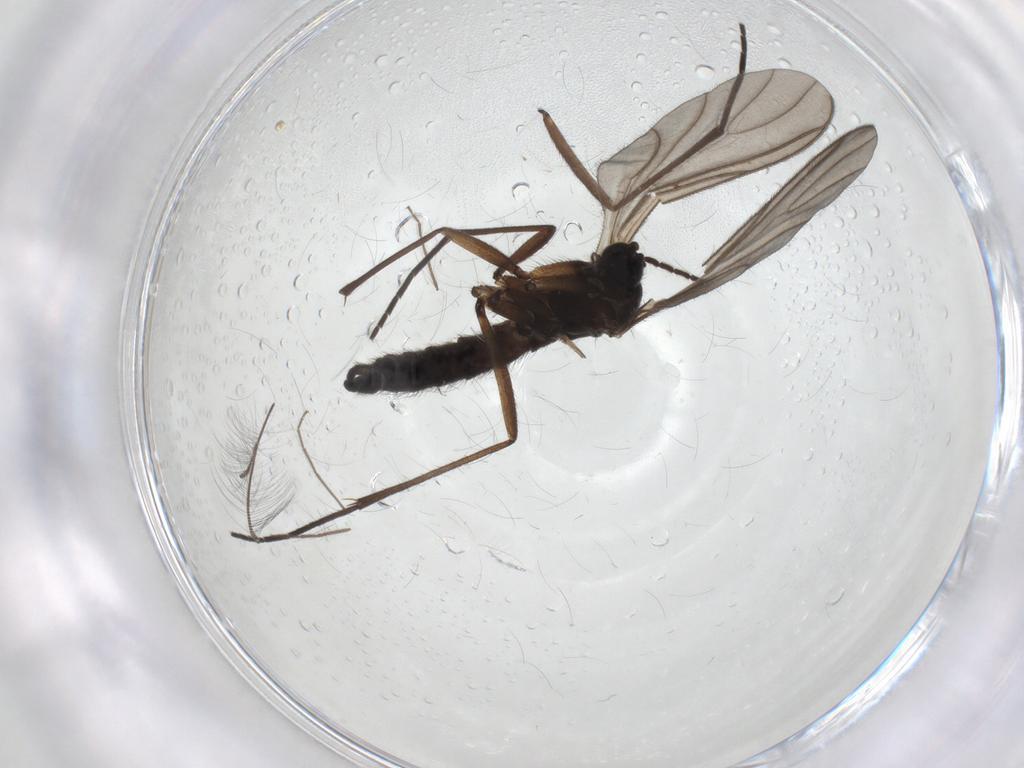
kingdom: Animalia
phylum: Arthropoda
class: Insecta
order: Diptera
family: Sciaridae
